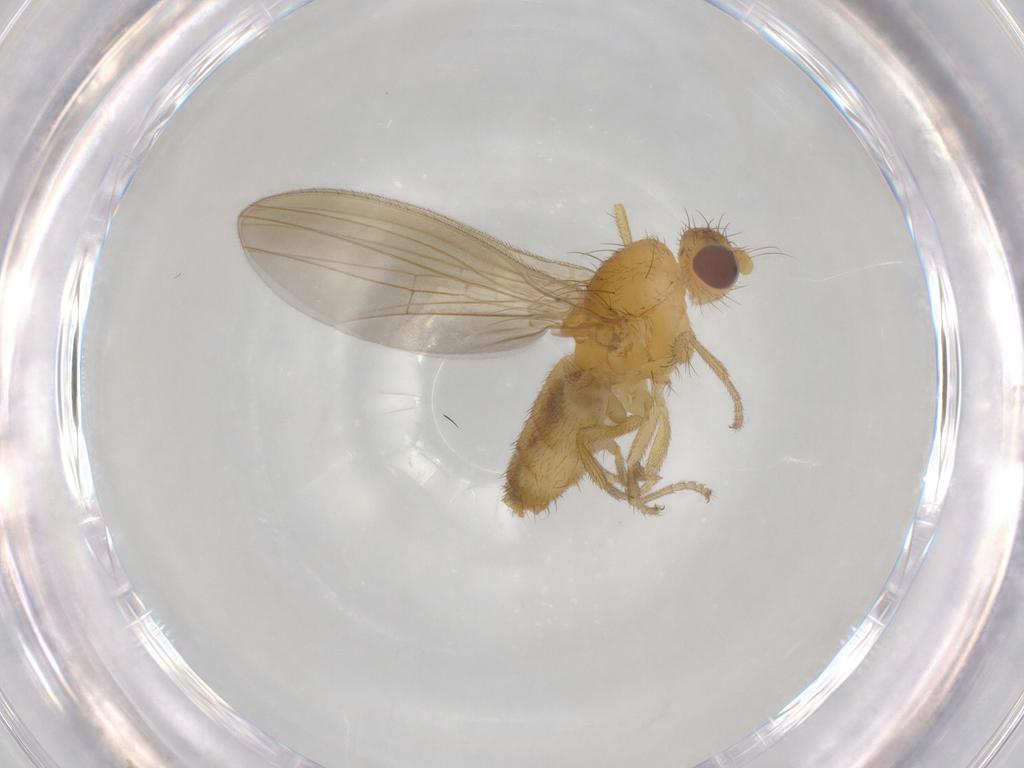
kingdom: Animalia
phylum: Arthropoda
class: Insecta
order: Diptera
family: Natalimyzidae
